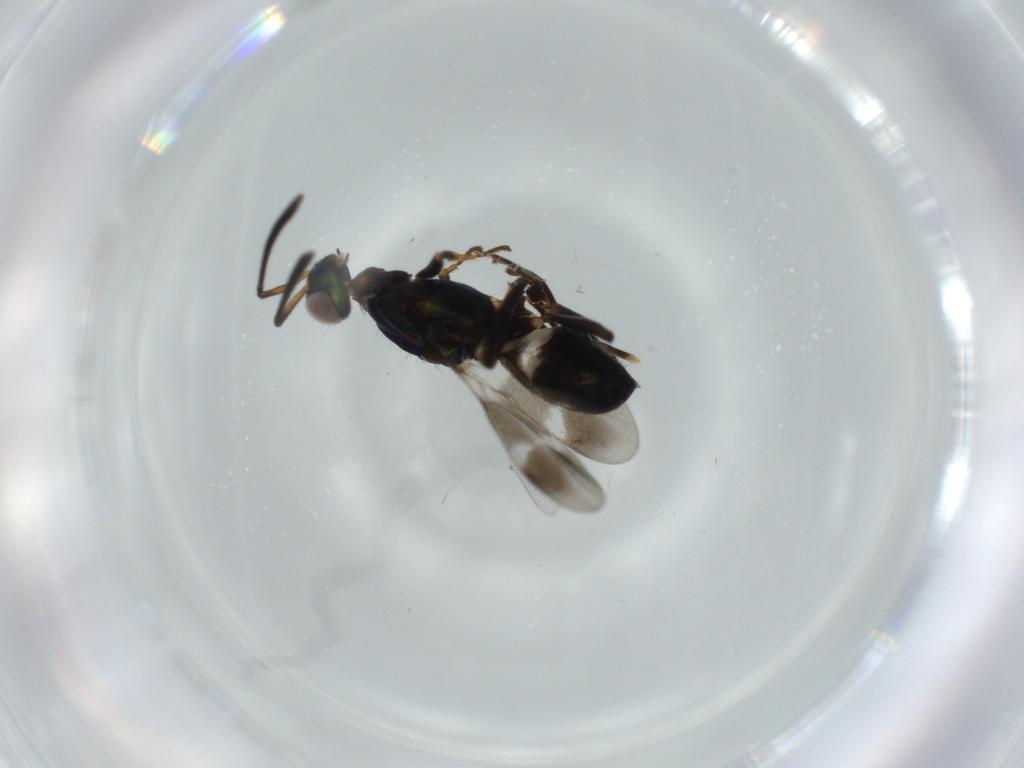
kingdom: Animalia
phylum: Arthropoda
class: Insecta
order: Hymenoptera
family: Eupelmidae
